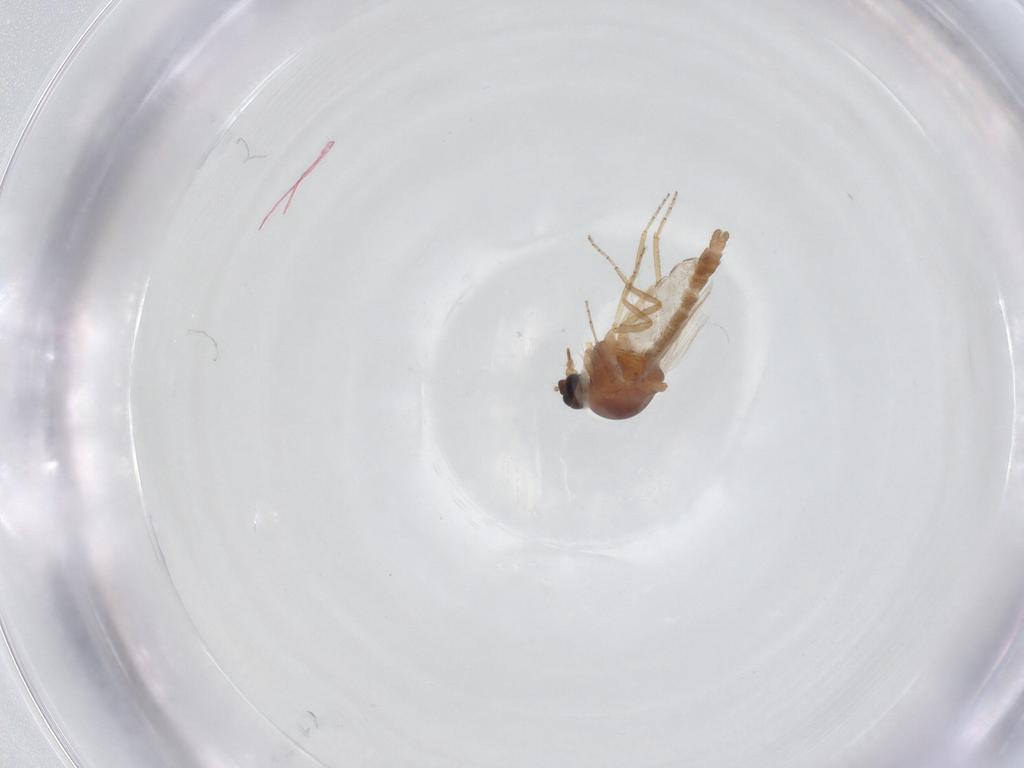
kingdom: Animalia
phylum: Arthropoda
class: Insecta
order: Diptera
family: Ceratopogonidae
